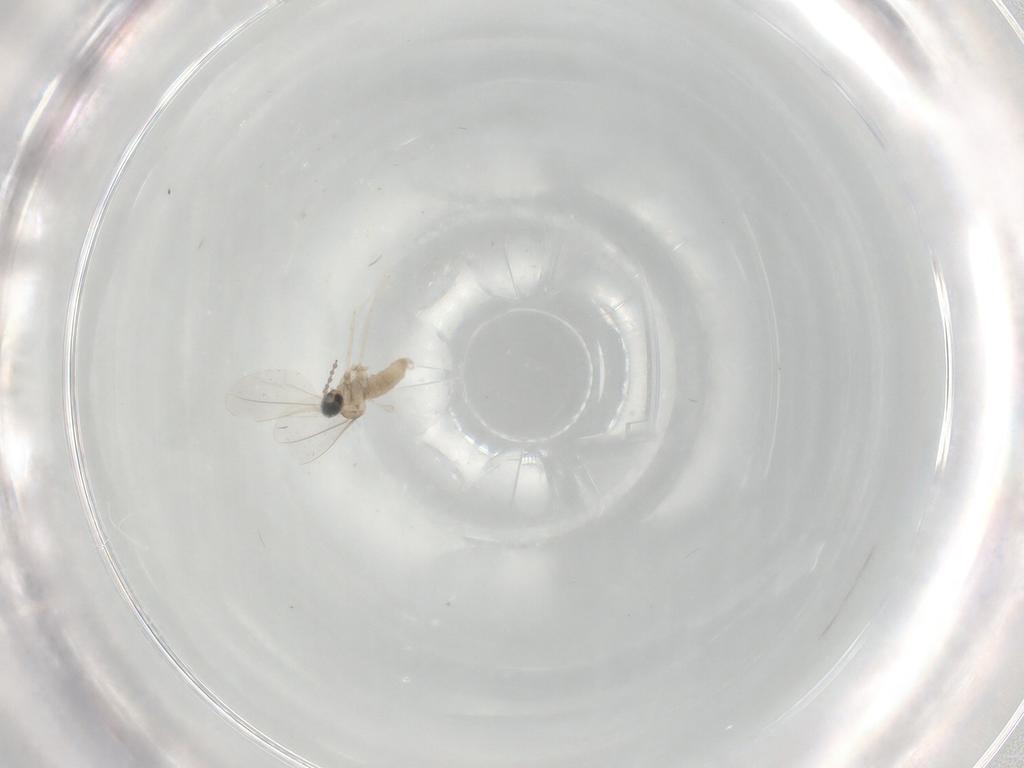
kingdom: Animalia
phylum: Arthropoda
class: Insecta
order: Diptera
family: Cecidomyiidae
